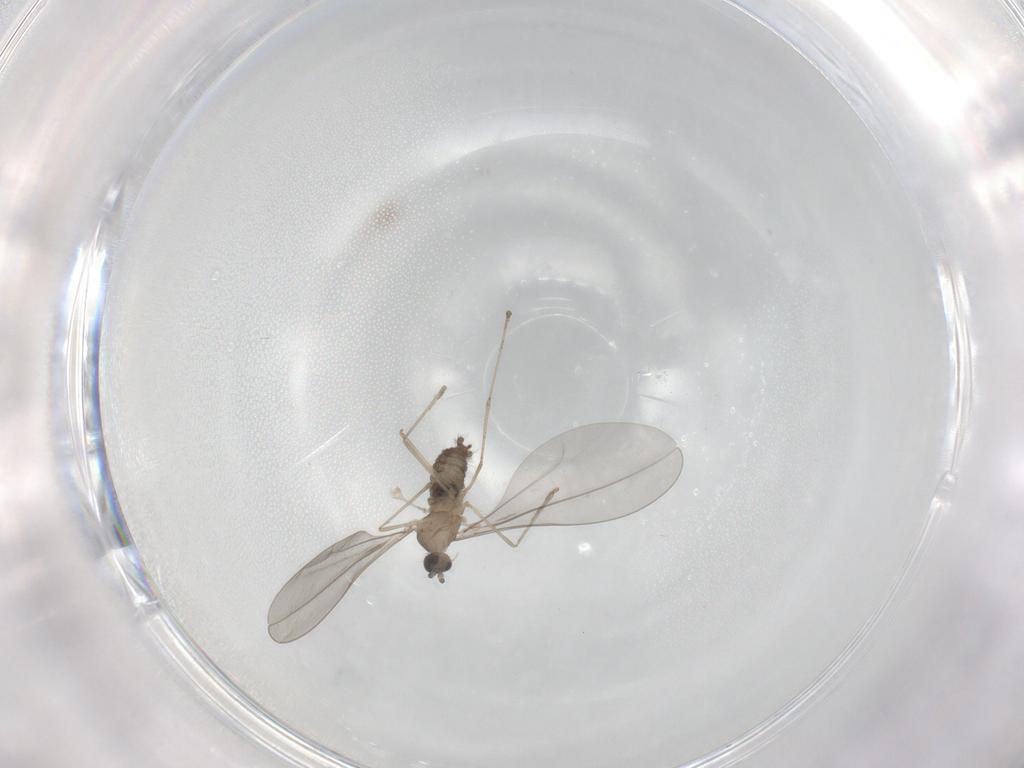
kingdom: Animalia
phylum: Arthropoda
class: Insecta
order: Diptera
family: Cecidomyiidae
